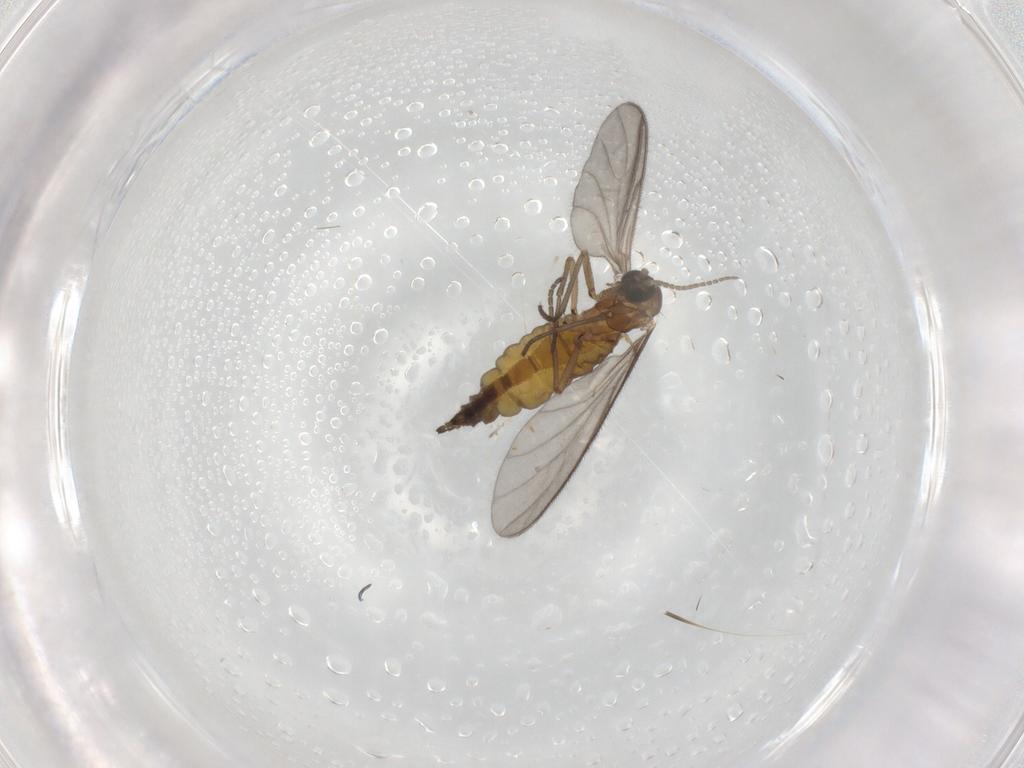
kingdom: Animalia
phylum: Arthropoda
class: Insecta
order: Diptera
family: Sciaridae
